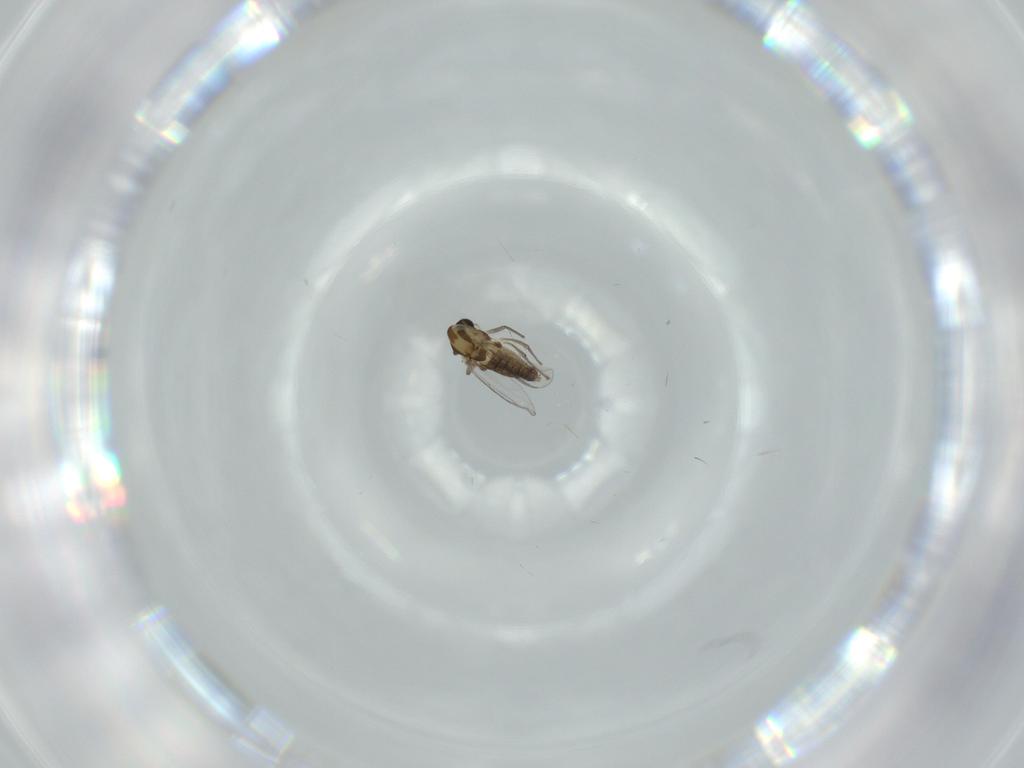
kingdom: Animalia
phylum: Arthropoda
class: Insecta
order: Diptera
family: Chironomidae
